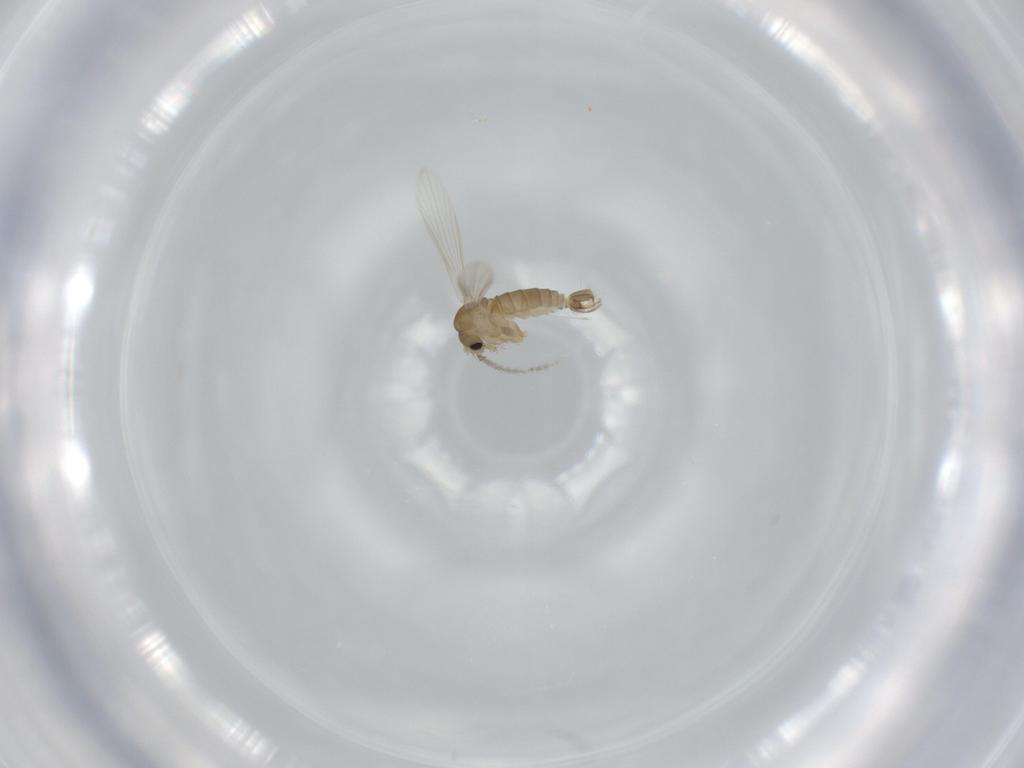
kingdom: Animalia
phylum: Arthropoda
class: Insecta
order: Diptera
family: Psychodidae
